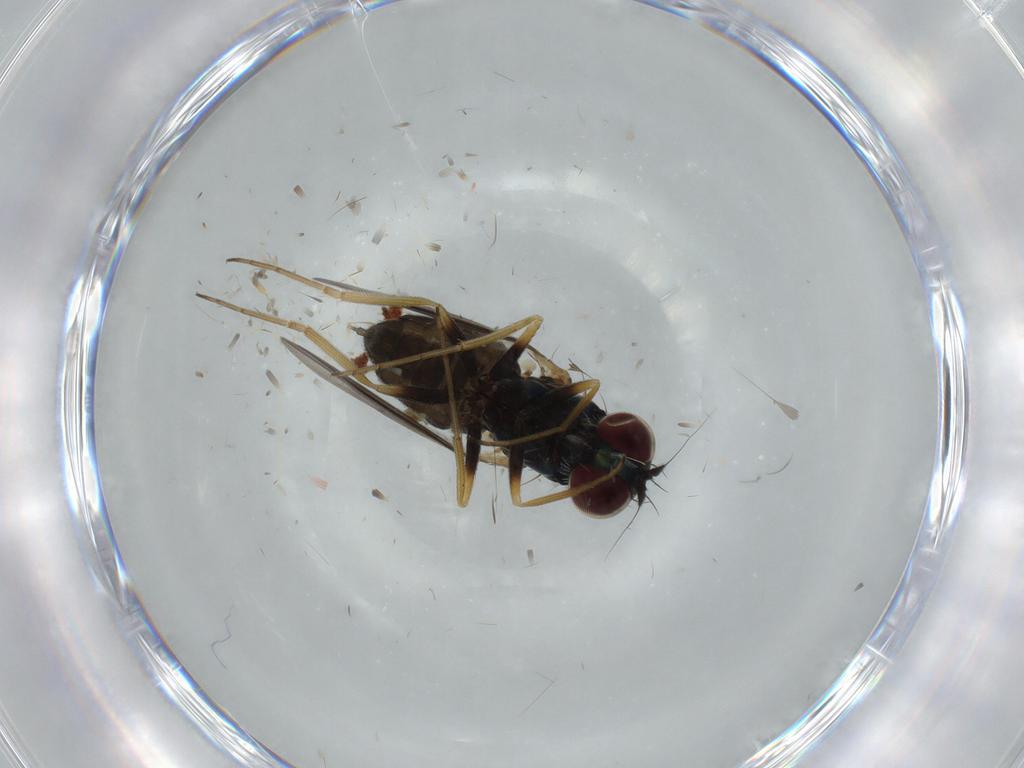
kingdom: Animalia
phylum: Arthropoda
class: Insecta
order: Diptera
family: Dolichopodidae
